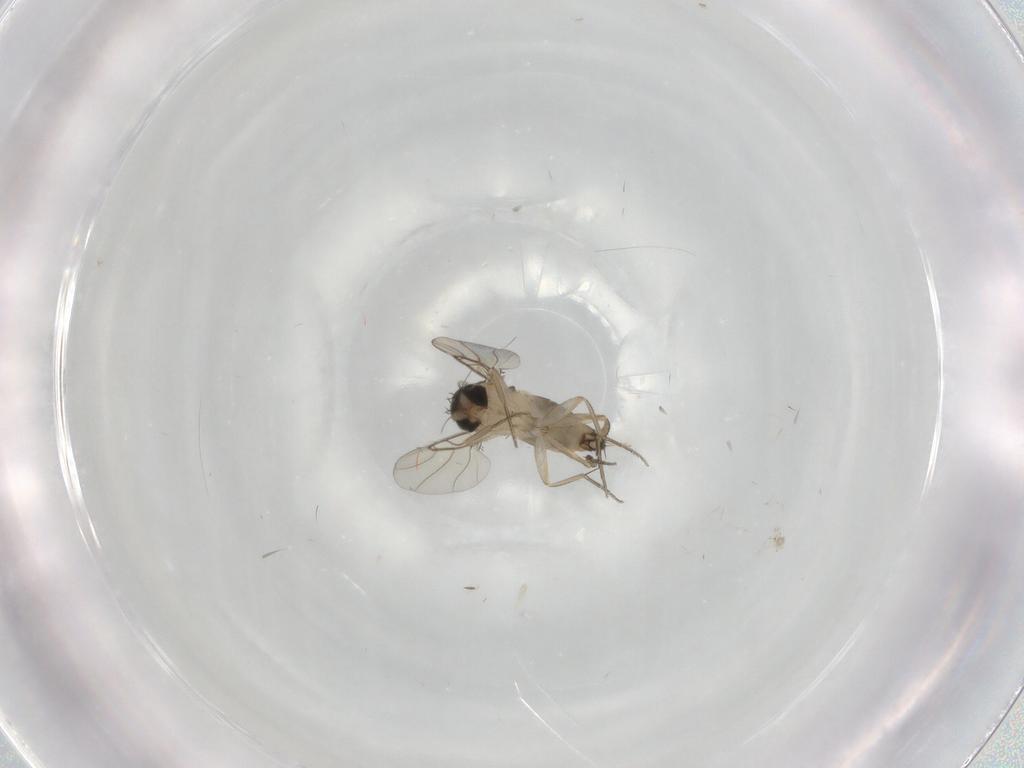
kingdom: Animalia
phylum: Arthropoda
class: Insecta
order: Diptera
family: Phoridae
